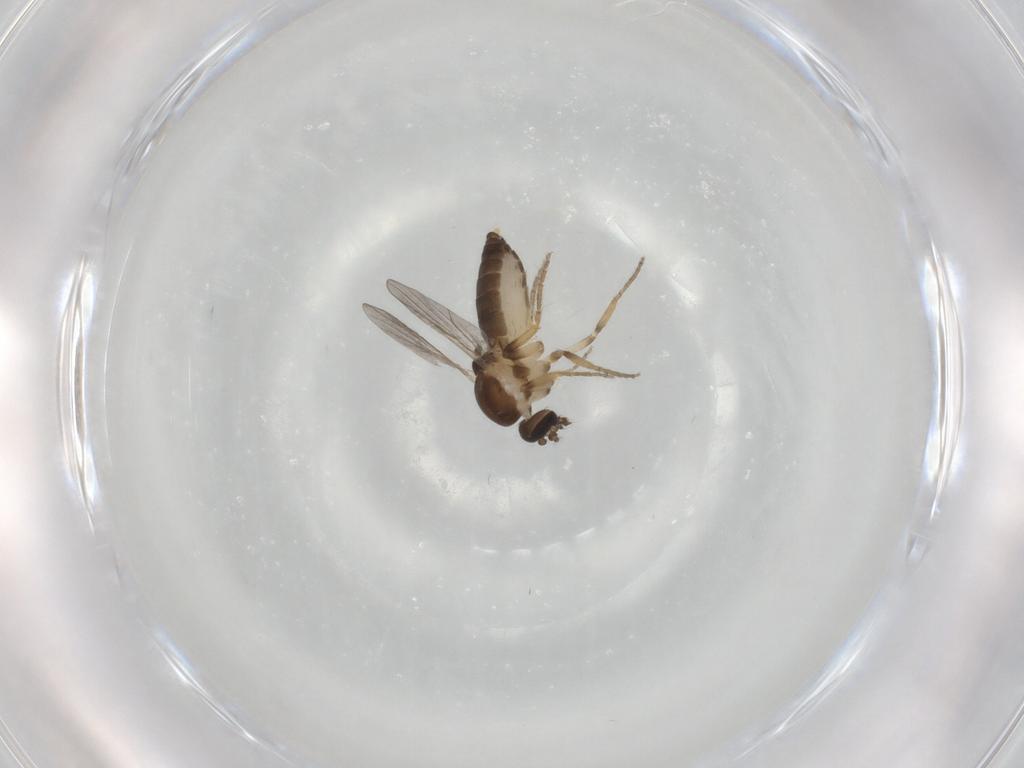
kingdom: Animalia
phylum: Arthropoda
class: Insecta
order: Diptera
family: Ceratopogonidae
